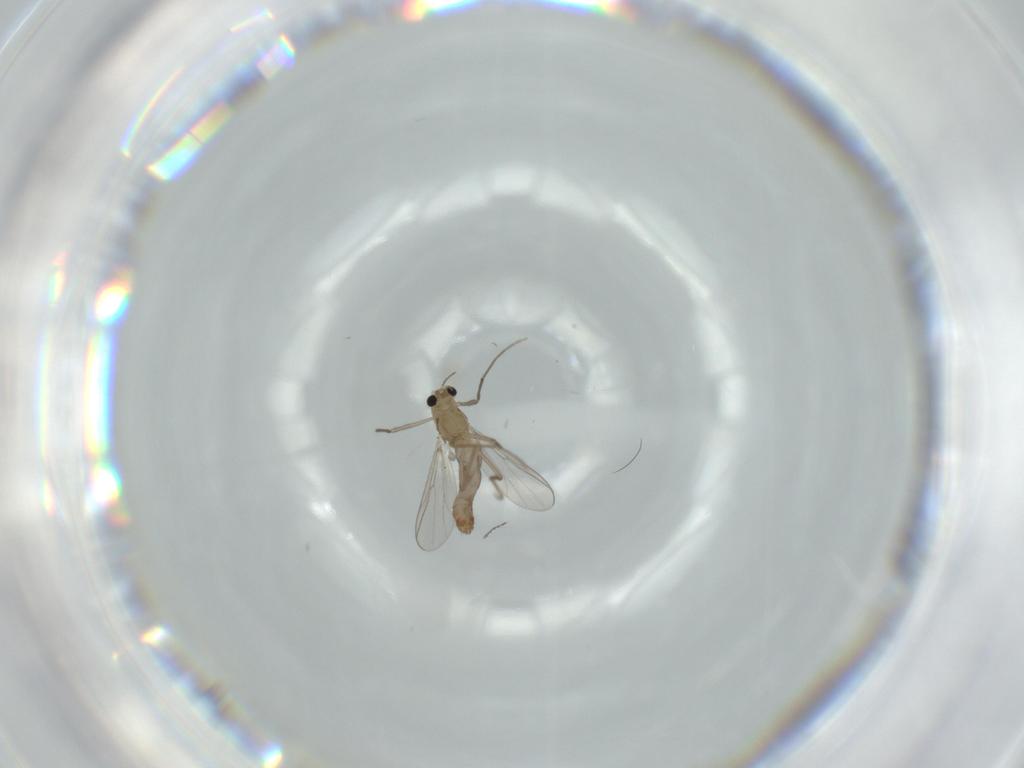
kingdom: Animalia
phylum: Arthropoda
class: Insecta
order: Diptera
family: Chironomidae
